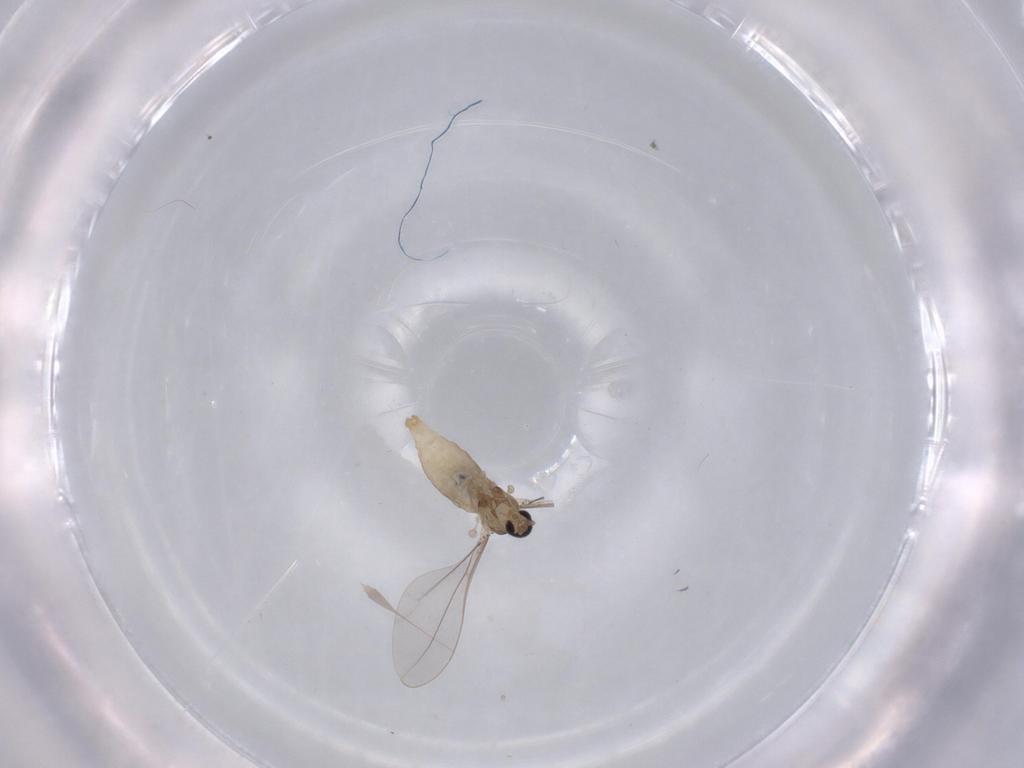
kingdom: Animalia
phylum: Arthropoda
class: Insecta
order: Diptera
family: Cecidomyiidae
